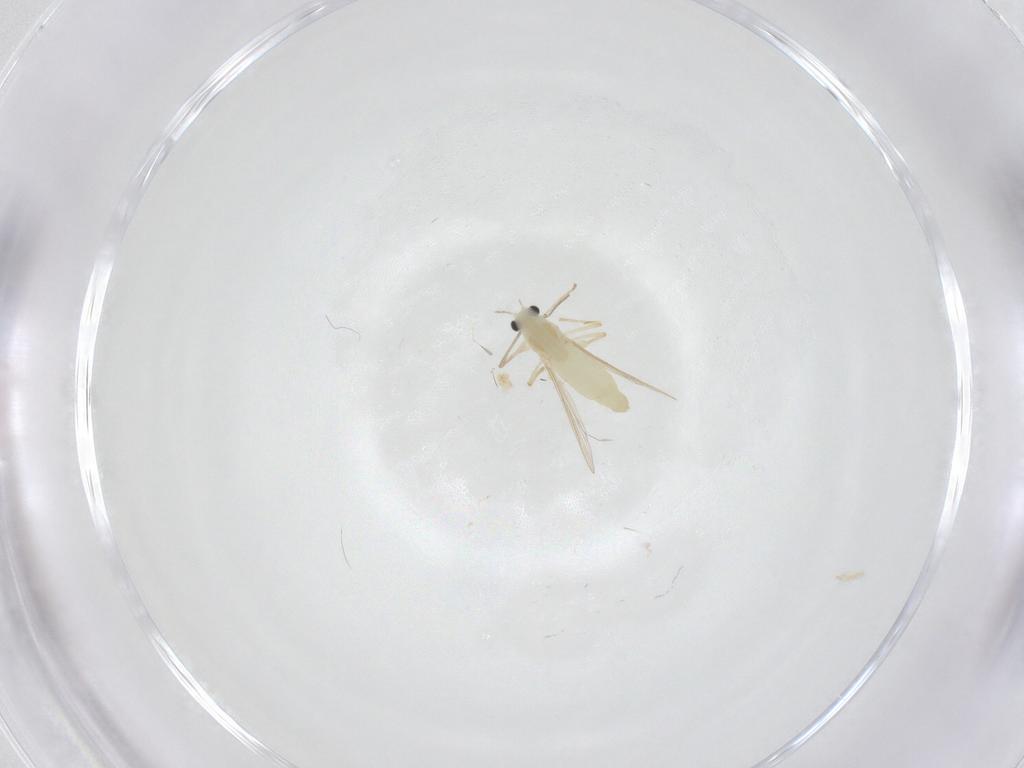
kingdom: Animalia
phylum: Arthropoda
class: Insecta
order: Diptera
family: Chironomidae
